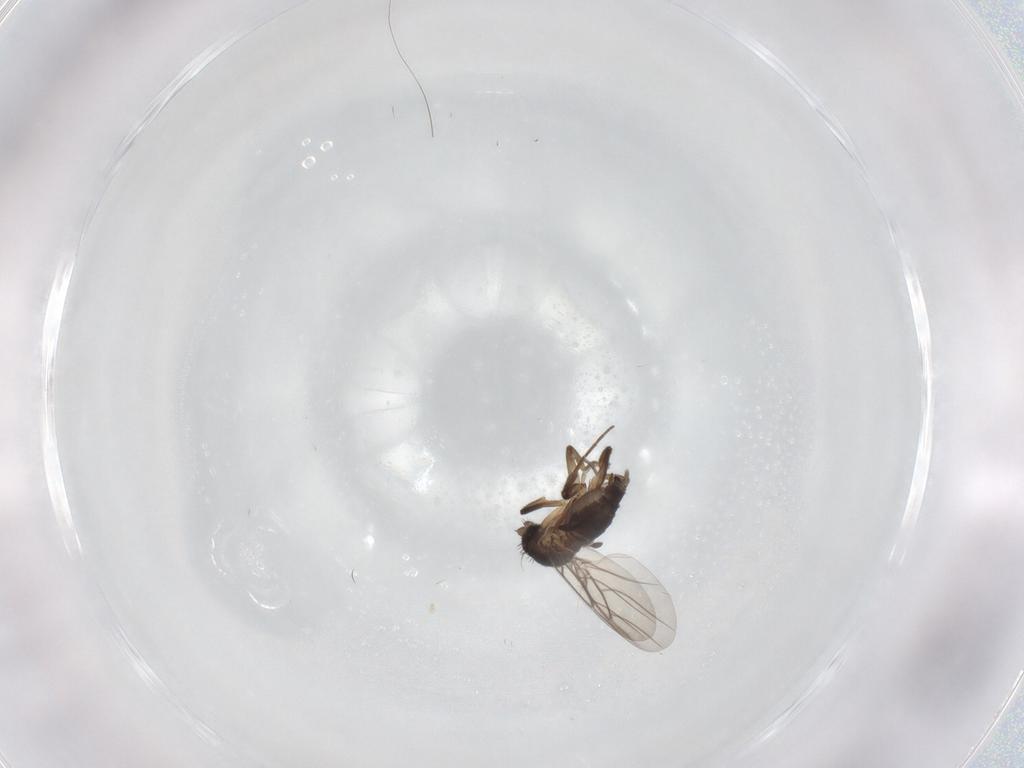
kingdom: Animalia
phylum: Arthropoda
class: Insecta
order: Diptera
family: Phoridae
